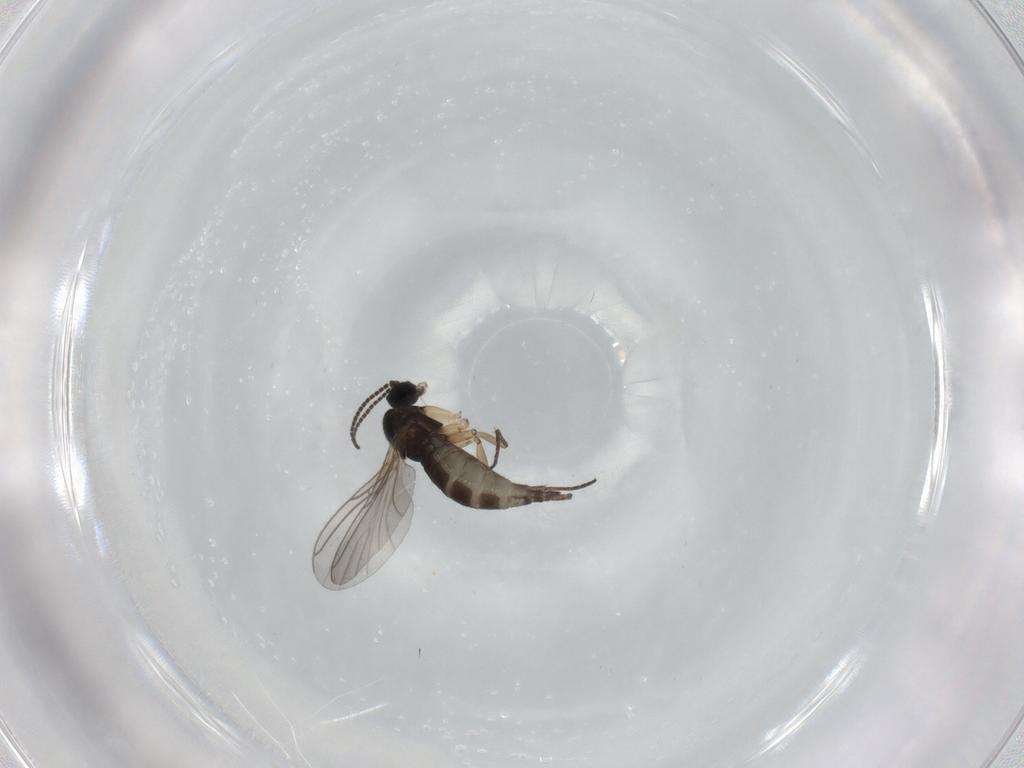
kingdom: Animalia
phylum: Arthropoda
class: Insecta
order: Diptera
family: Sciaridae
